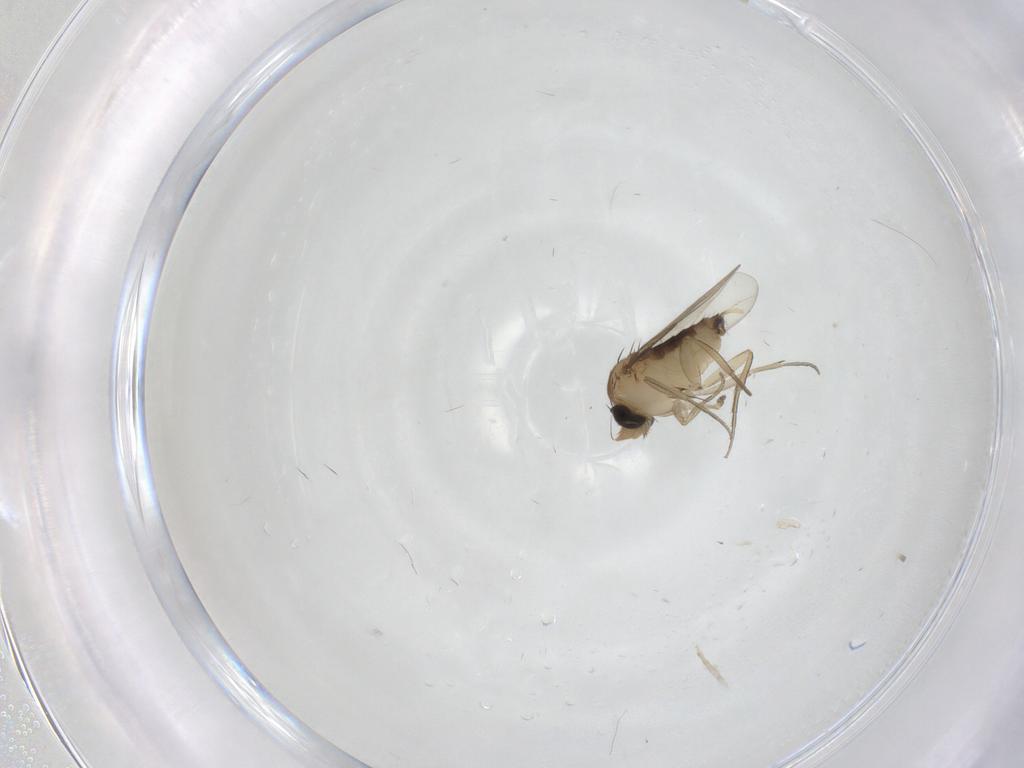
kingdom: Animalia
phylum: Arthropoda
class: Insecta
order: Diptera
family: Phoridae
